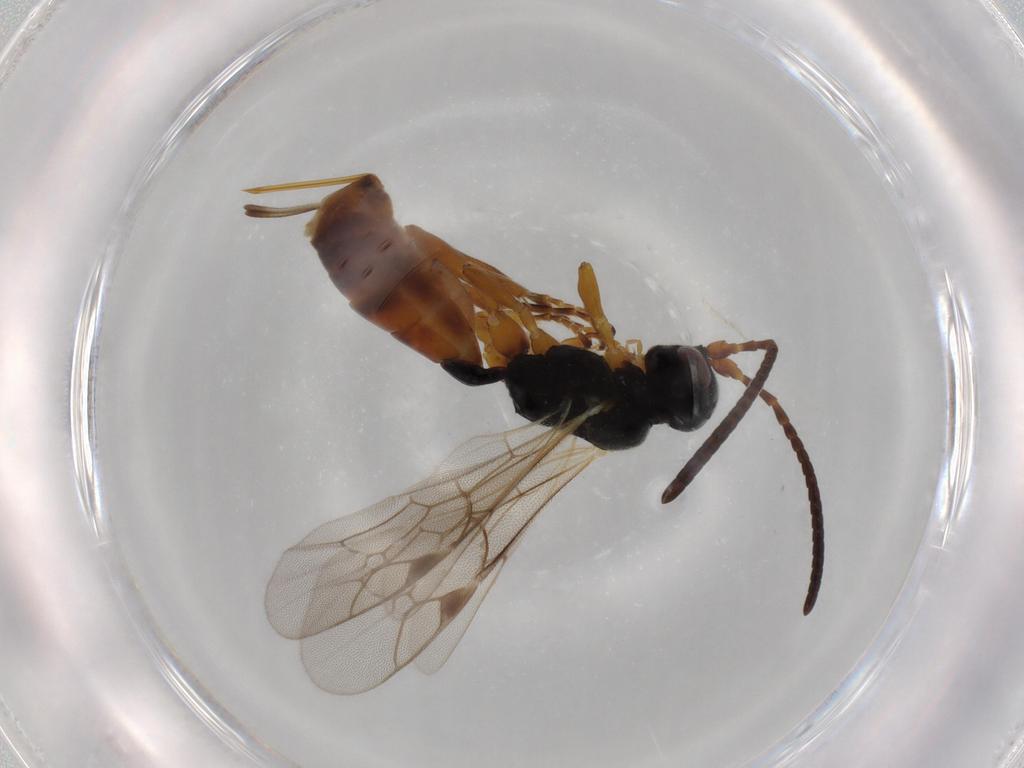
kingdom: Animalia
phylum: Arthropoda
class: Insecta
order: Hymenoptera
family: Ichneumonidae
